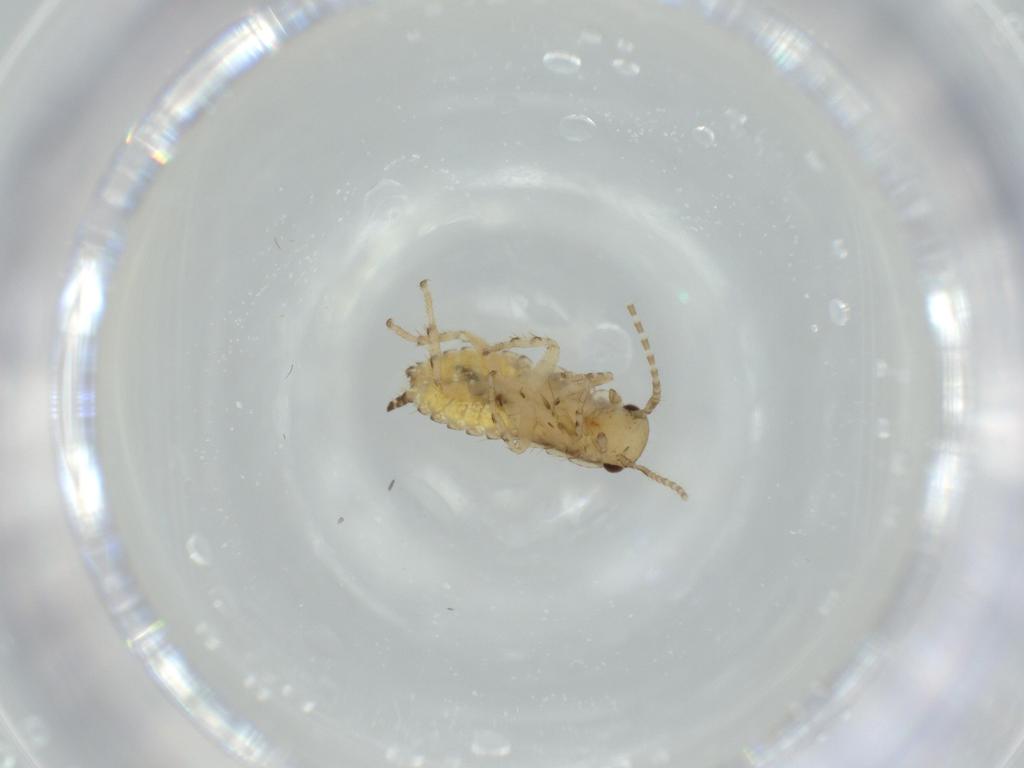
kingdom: Animalia
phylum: Arthropoda
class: Insecta
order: Blattodea
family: Ectobiidae
